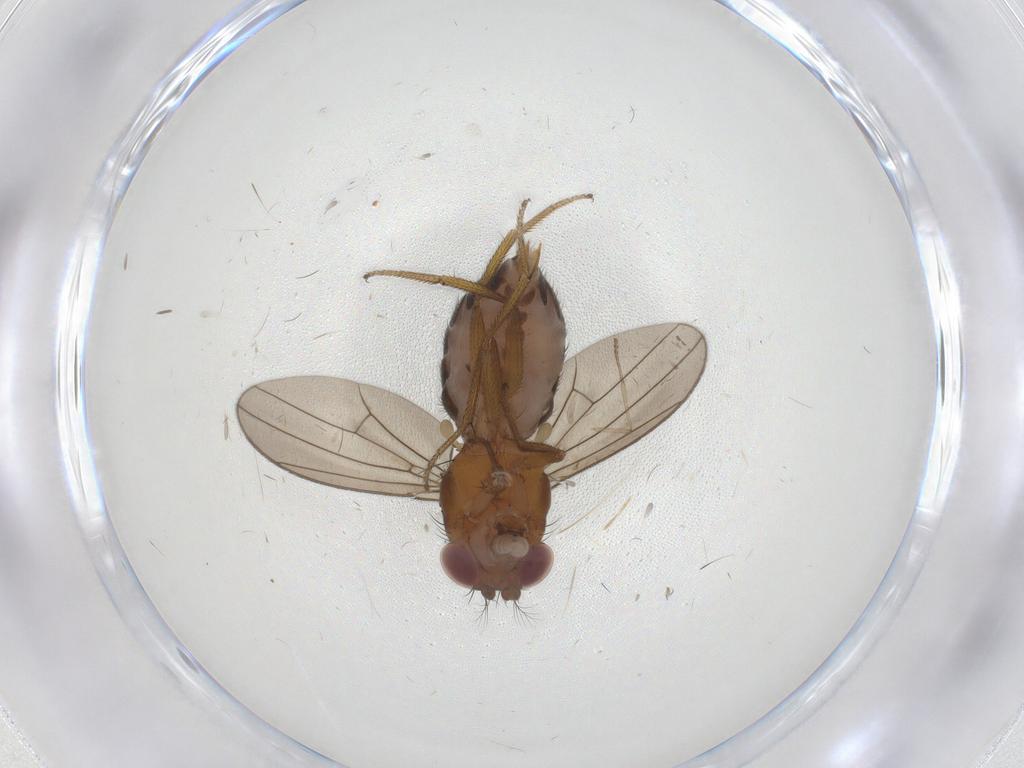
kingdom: Animalia
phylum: Arthropoda
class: Insecta
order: Diptera
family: Drosophilidae
